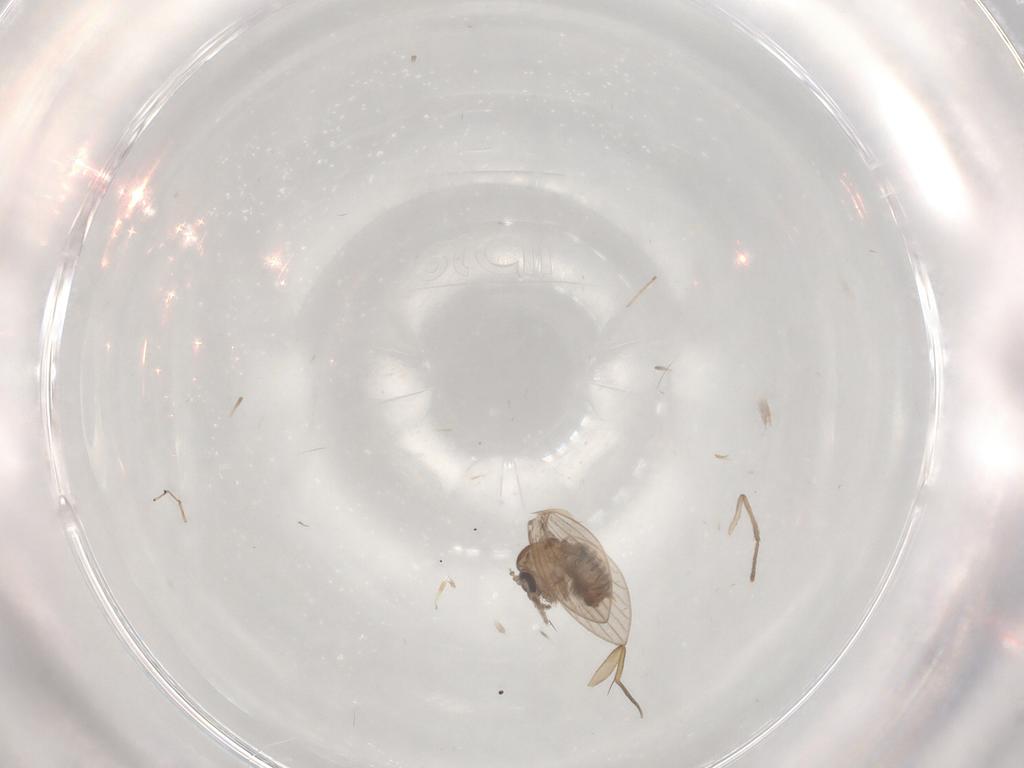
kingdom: Animalia
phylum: Arthropoda
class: Insecta
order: Diptera
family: Psychodidae
